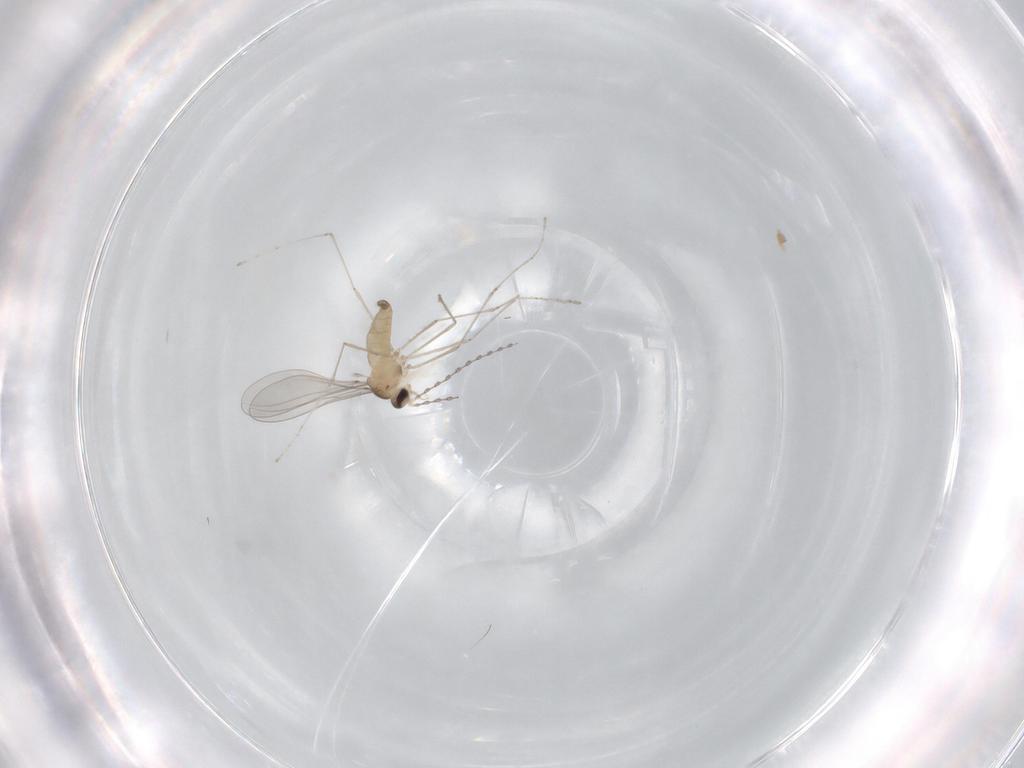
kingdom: Animalia
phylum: Arthropoda
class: Insecta
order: Diptera
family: Cecidomyiidae
